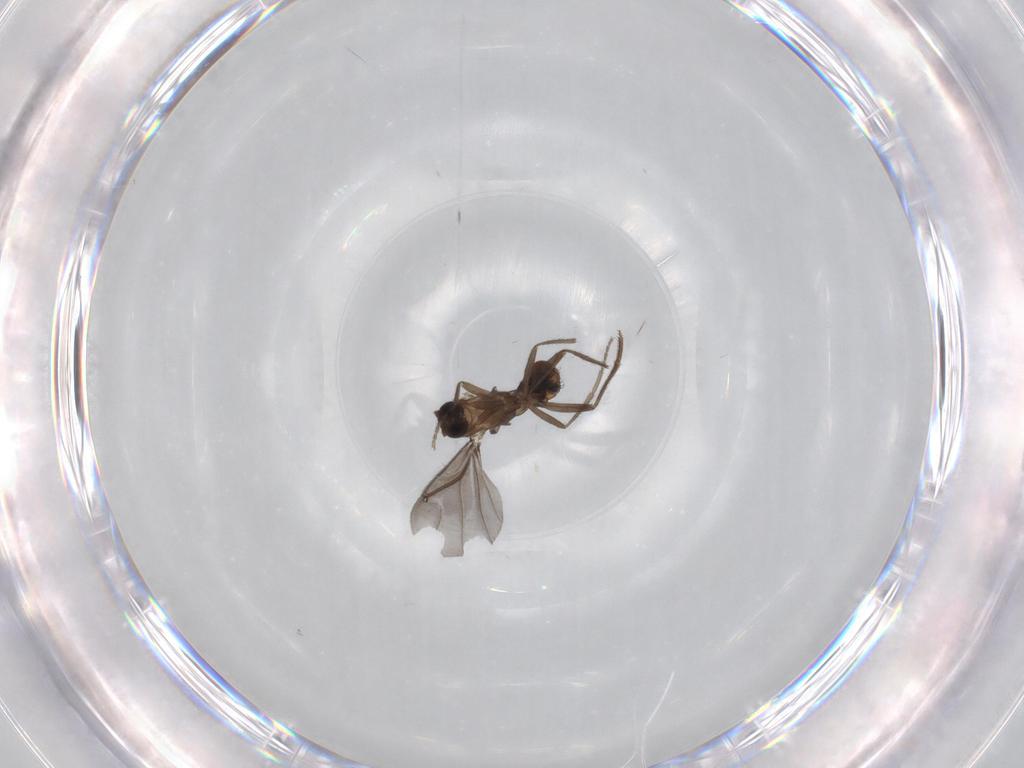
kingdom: Animalia
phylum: Arthropoda
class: Insecta
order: Diptera
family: Phoridae
